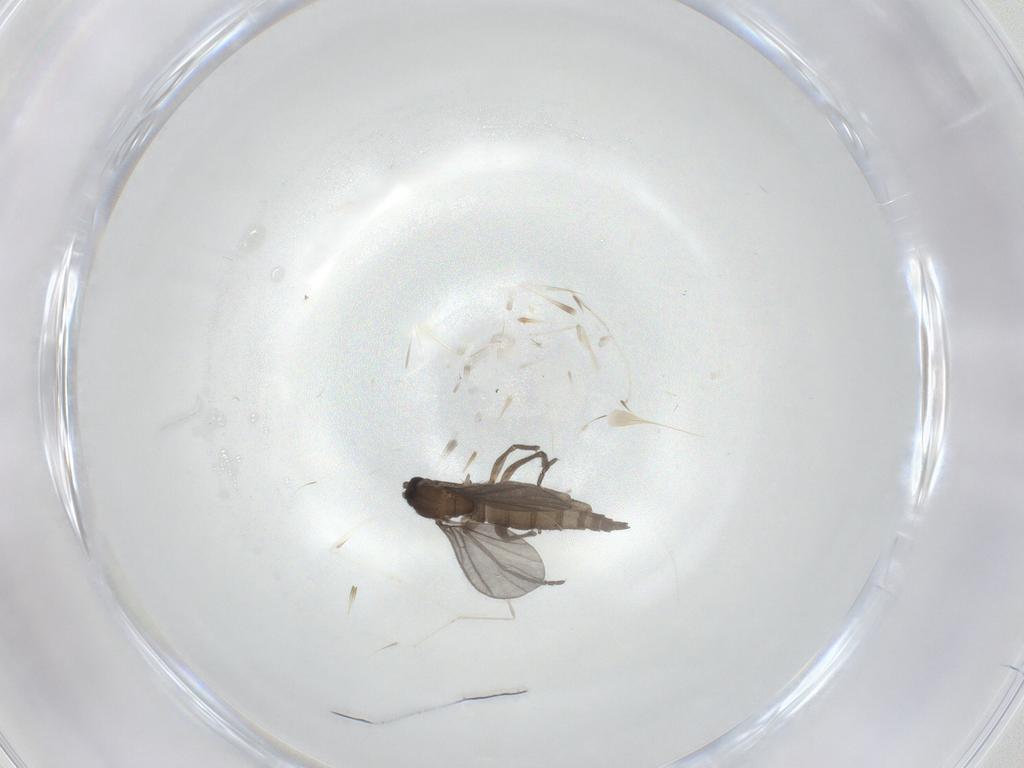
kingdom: Animalia
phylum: Arthropoda
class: Insecta
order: Diptera
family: Sciaridae
